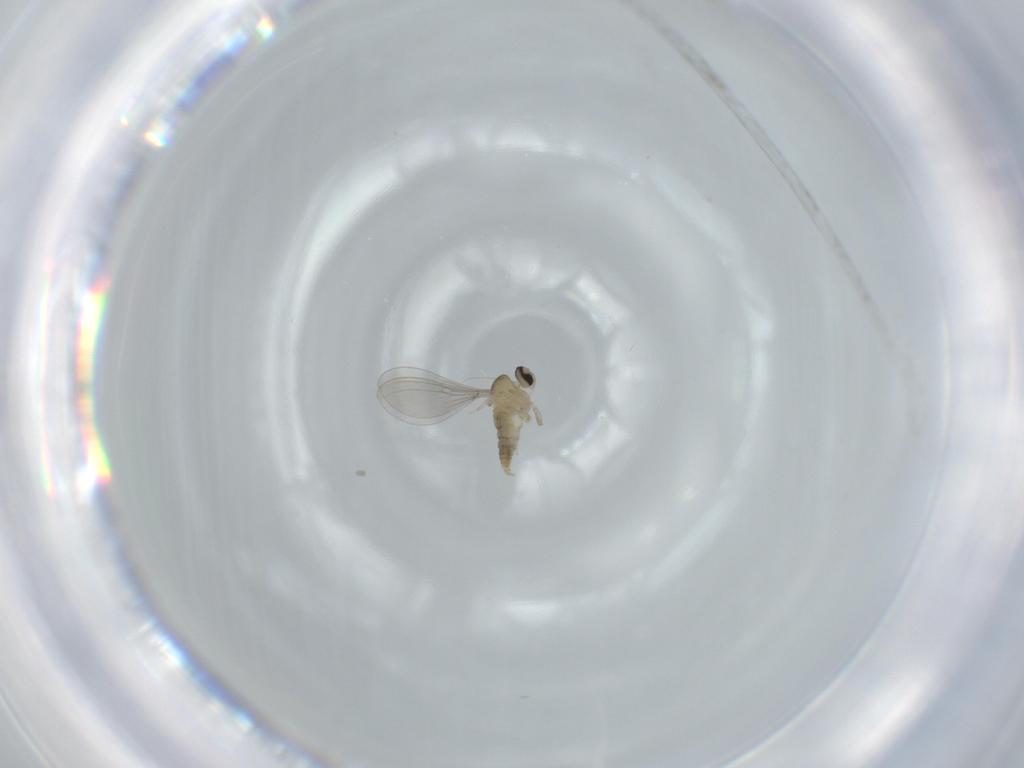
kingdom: Animalia
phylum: Arthropoda
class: Insecta
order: Diptera
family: Cecidomyiidae
